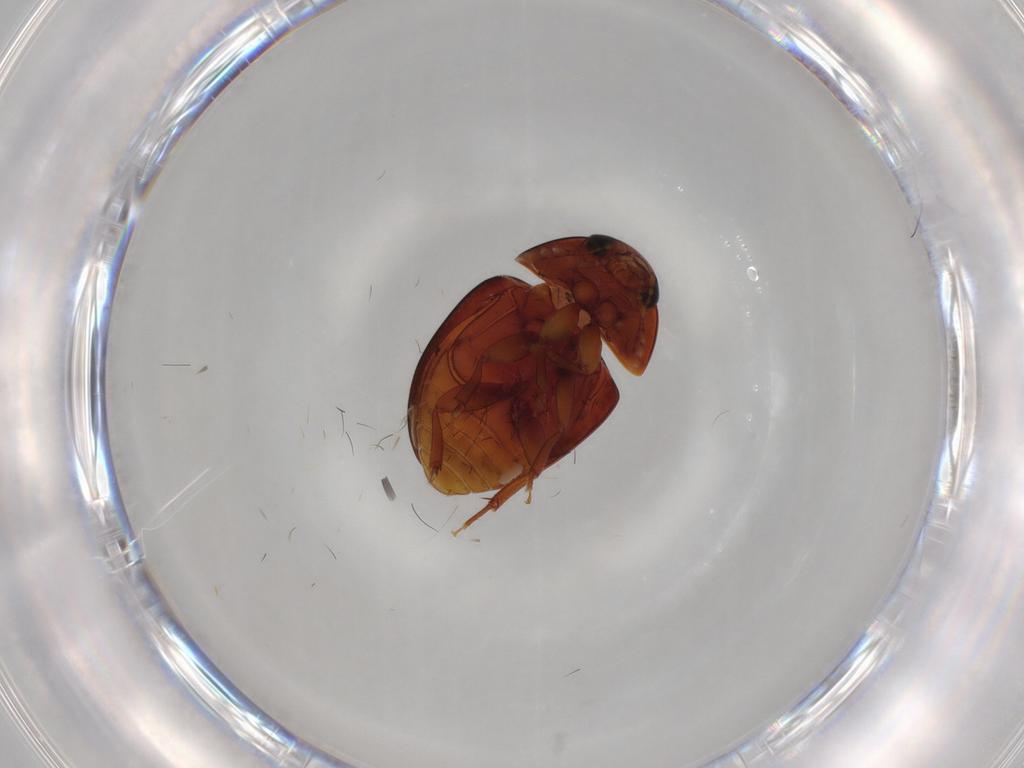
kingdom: Animalia
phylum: Arthropoda
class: Insecta
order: Coleoptera
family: Phalacridae
